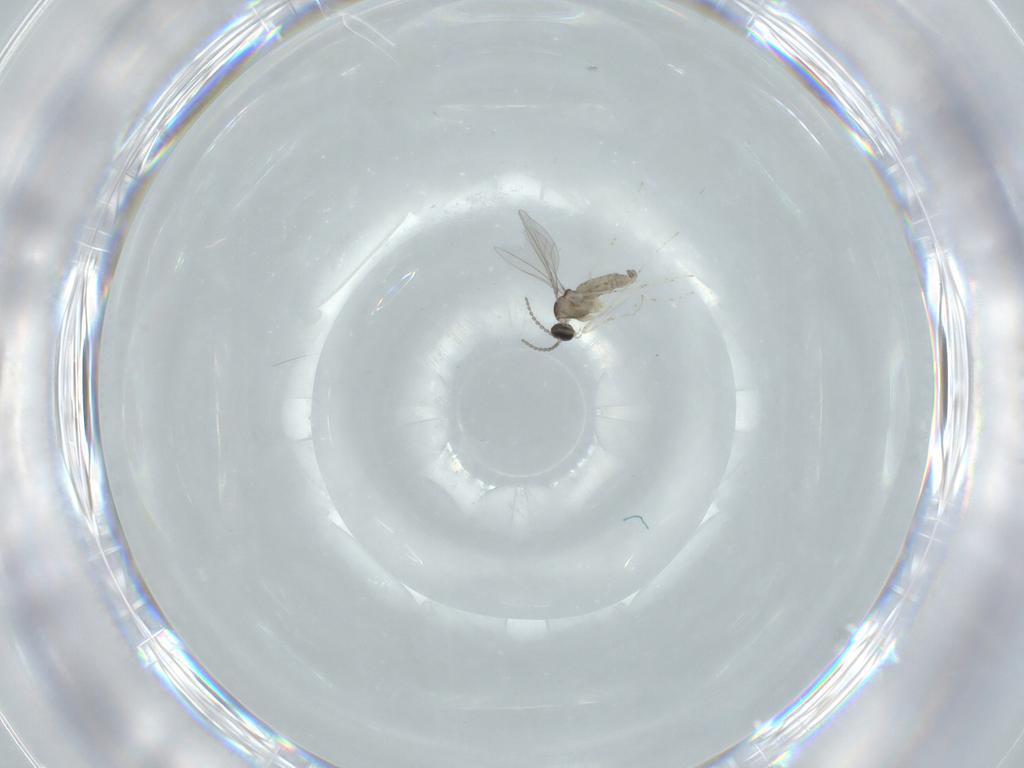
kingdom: Animalia
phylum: Arthropoda
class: Insecta
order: Diptera
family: Cecidomyiidae
